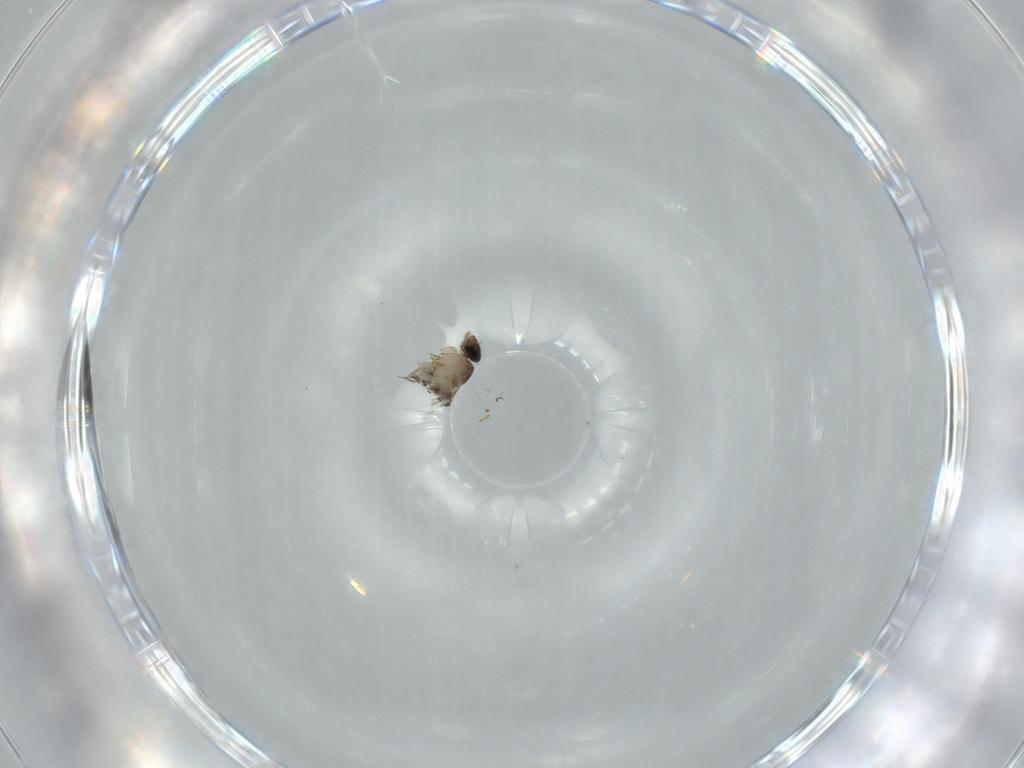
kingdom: Animalia
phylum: Arthropoda
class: Insecta
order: Diptera
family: Phoridae
